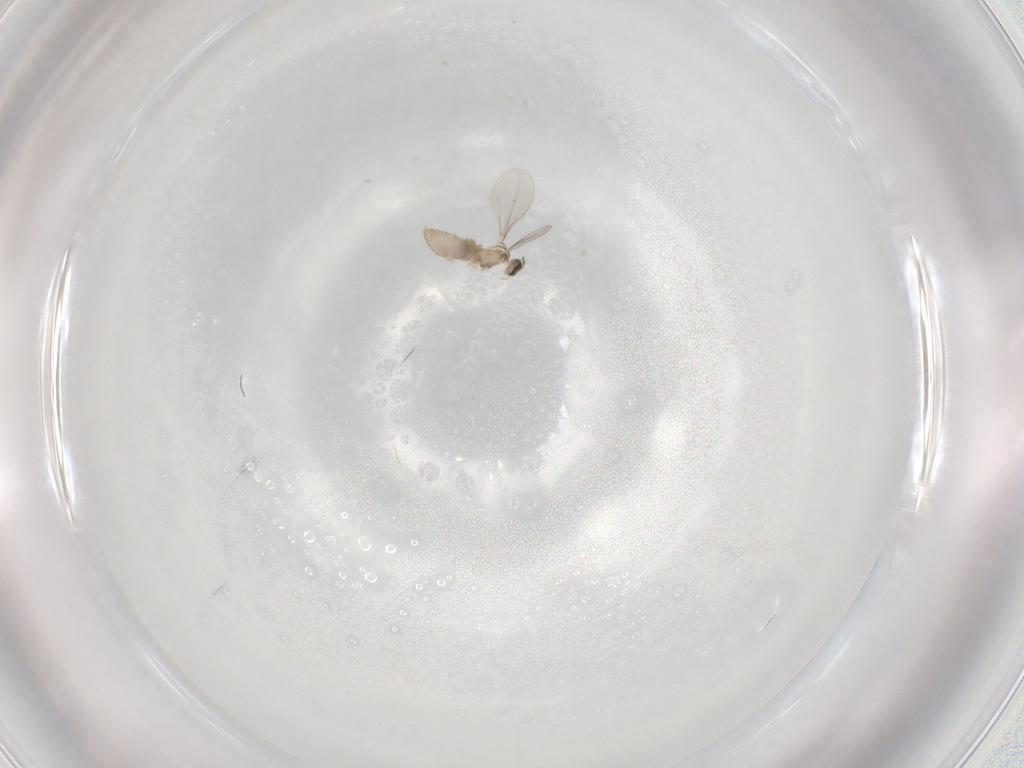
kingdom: Animalia
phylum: Arthropoda
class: Insecta
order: Diptera
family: Cecidomyiidae
